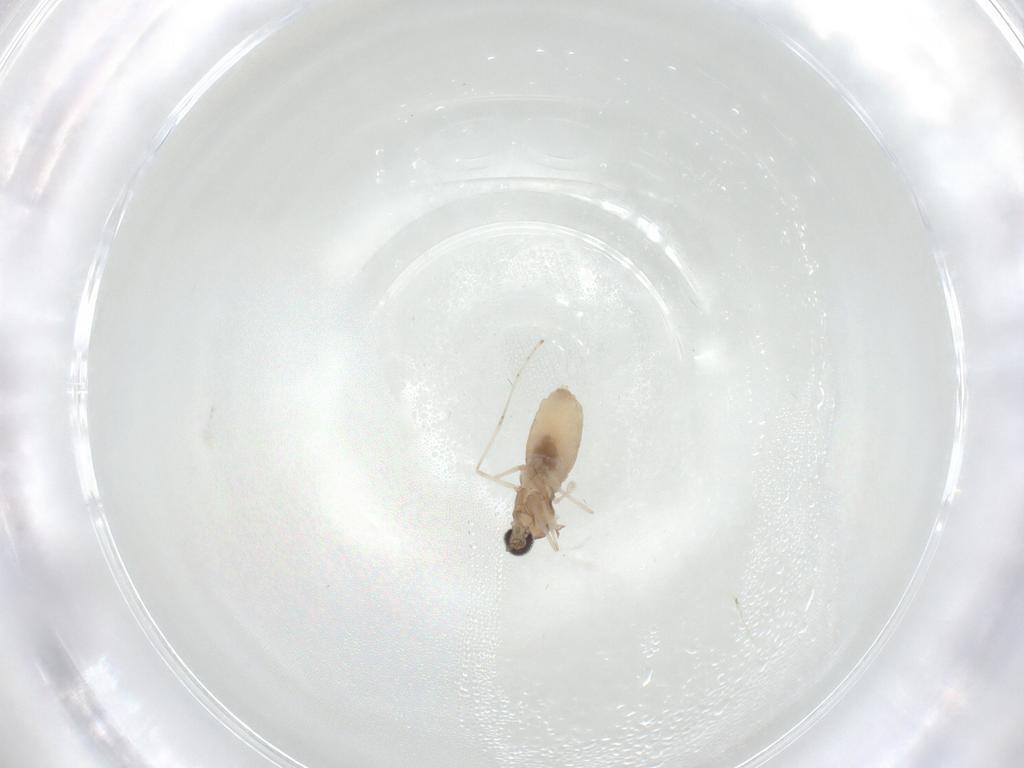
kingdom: Animalia
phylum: Arthropoda
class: Insecta
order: Diptera
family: Cecidomyiidae
